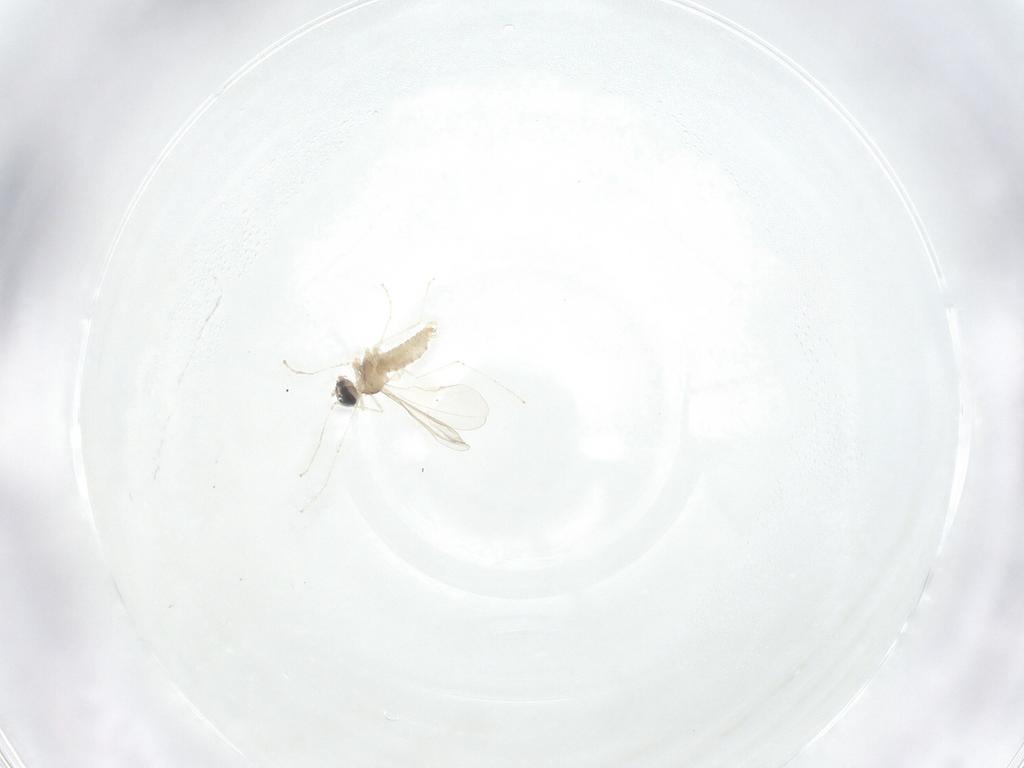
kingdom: Animalia
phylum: Arthropoda
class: Insecta
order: Diptera
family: Cecidomyiidae
